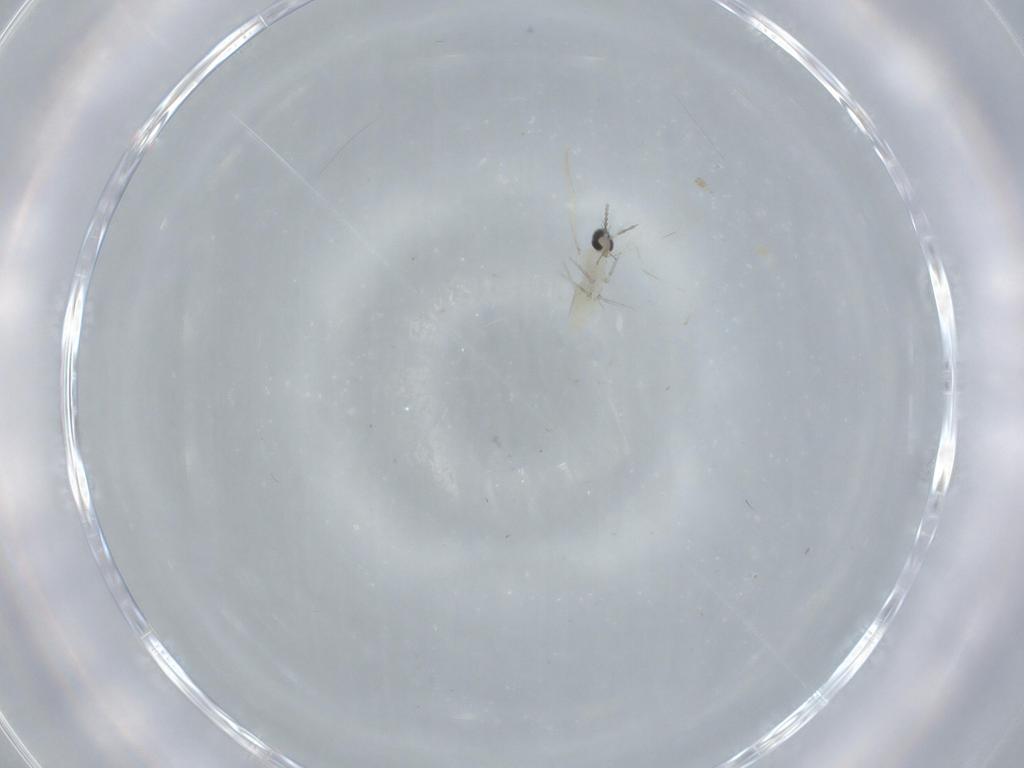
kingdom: Animalia
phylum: Arthropoda
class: Insecta
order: Diptera
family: Cecidomyiidae
